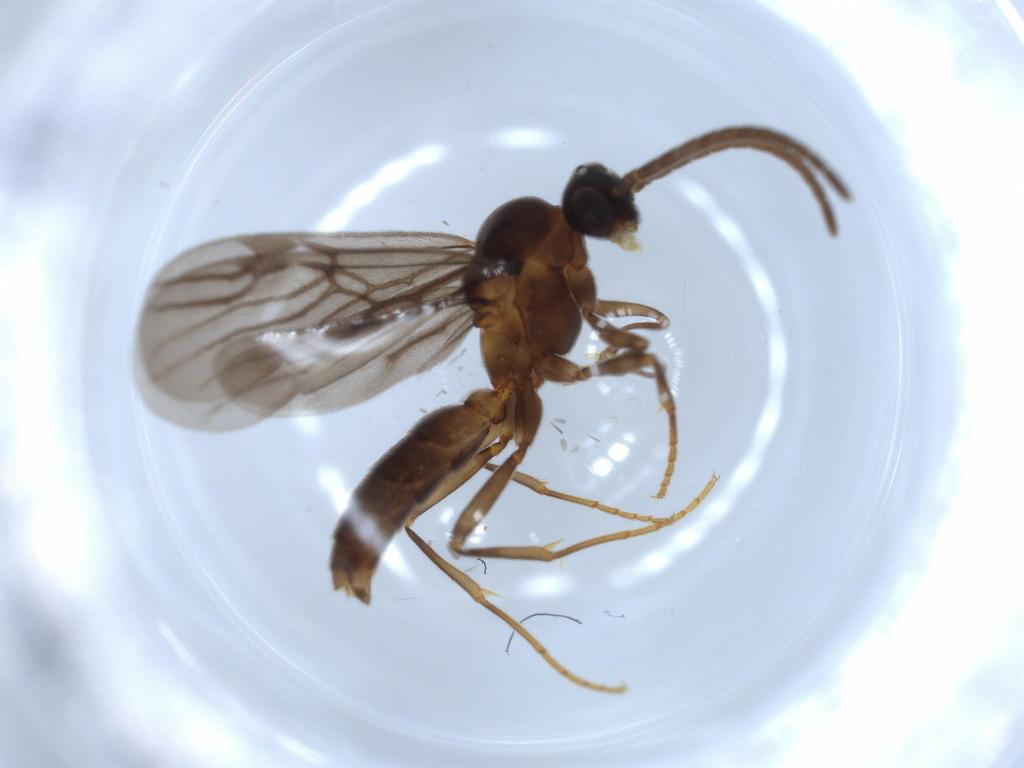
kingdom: Animalia
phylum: Arthropoda
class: Insecta
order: Hymenoptera
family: Formicidae
